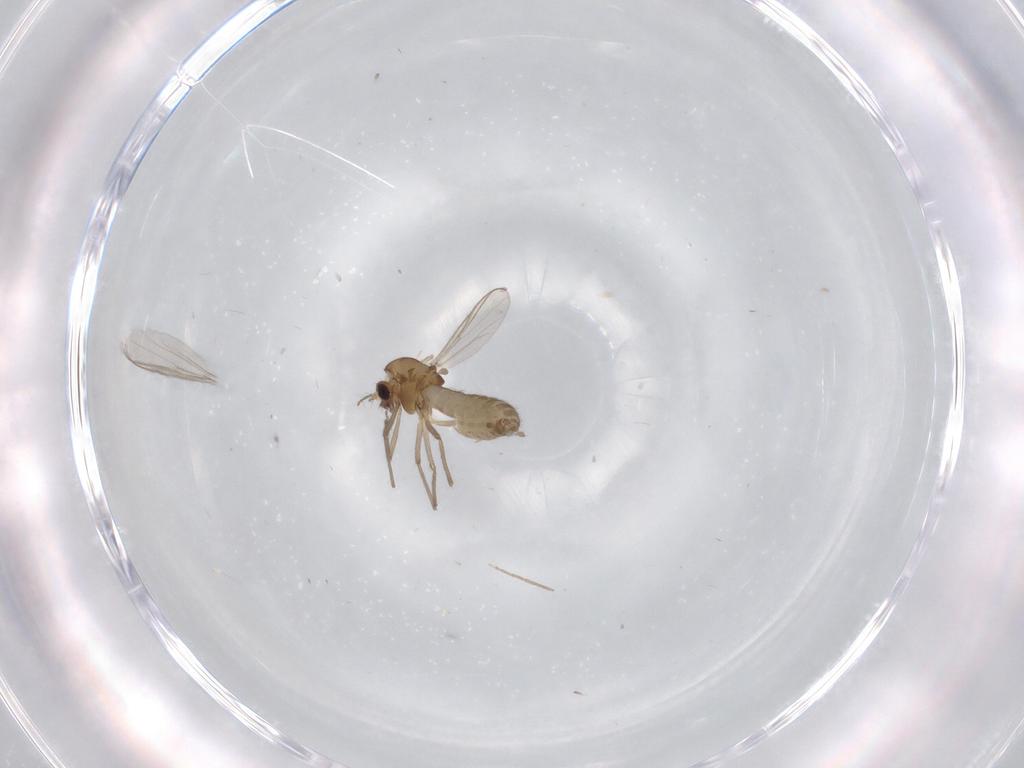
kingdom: Animalia
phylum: Arthropoda
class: Insecta
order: Diptera
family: Chironomidae
